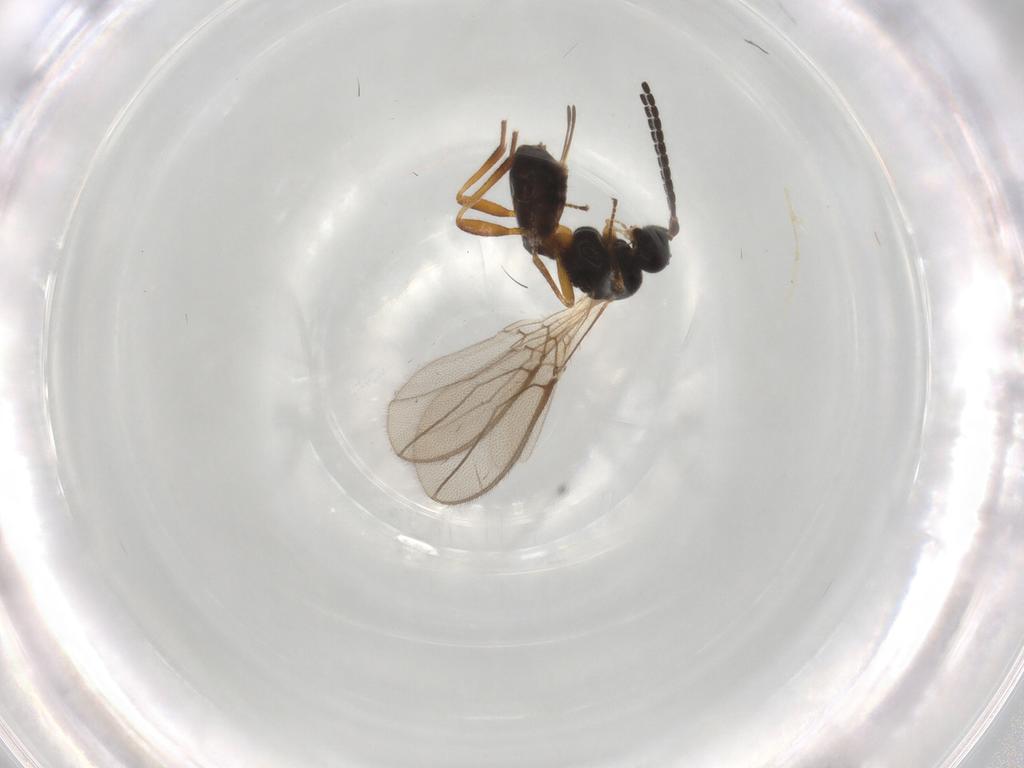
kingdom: Animalia
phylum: Arthropoda
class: Insecta
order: Hymenoptera
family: Braconidae
